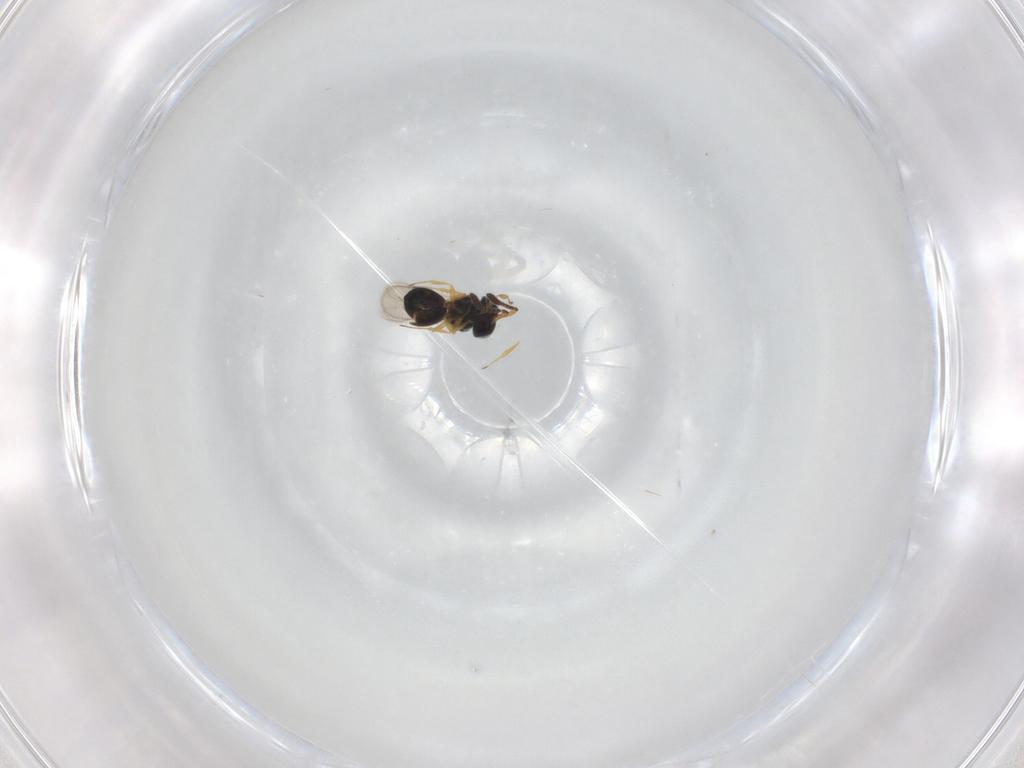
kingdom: Animalia
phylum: Arthropoda
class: Insecta
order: Hymenoptera
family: Scelionidae
